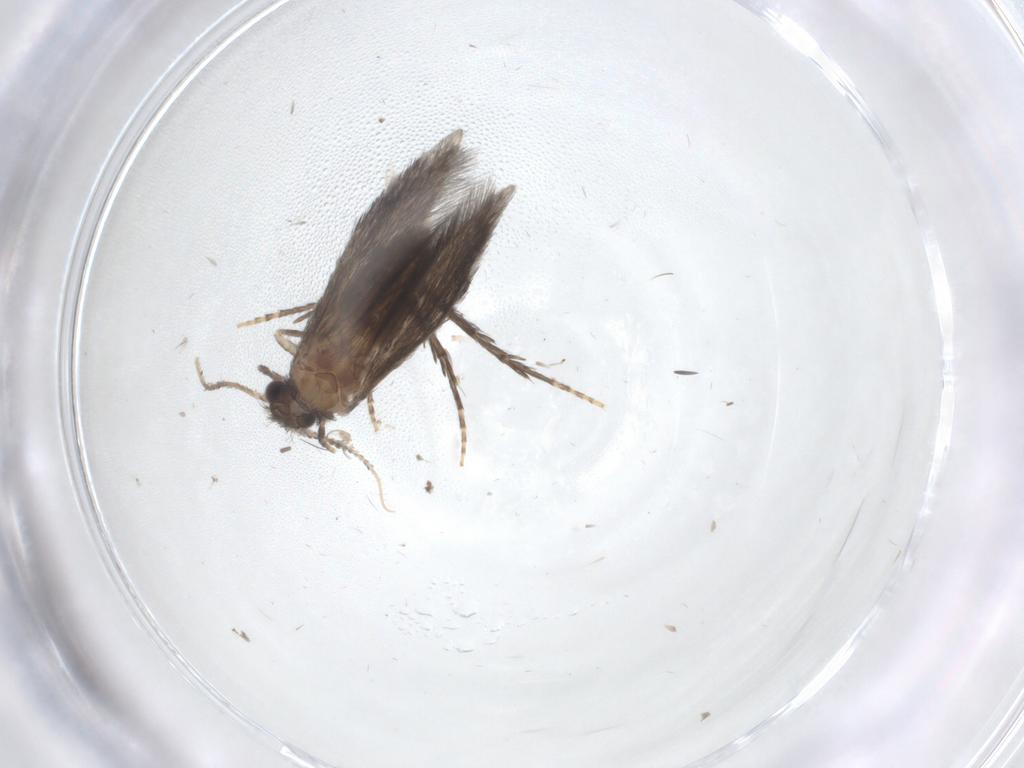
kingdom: Animalia
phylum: Arthropoda
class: Insecta
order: Trichoptera
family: Hydroptilidae
